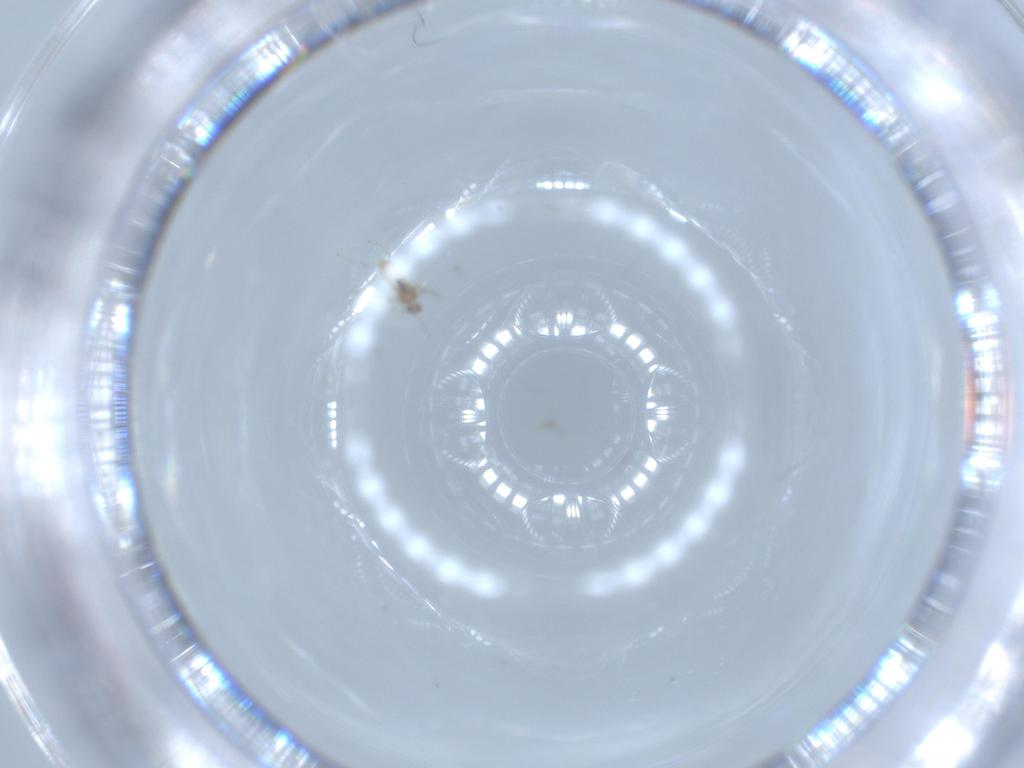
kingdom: Animalia
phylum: Arthropoda
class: Insecta
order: Diptera
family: Cecidomyiidae
